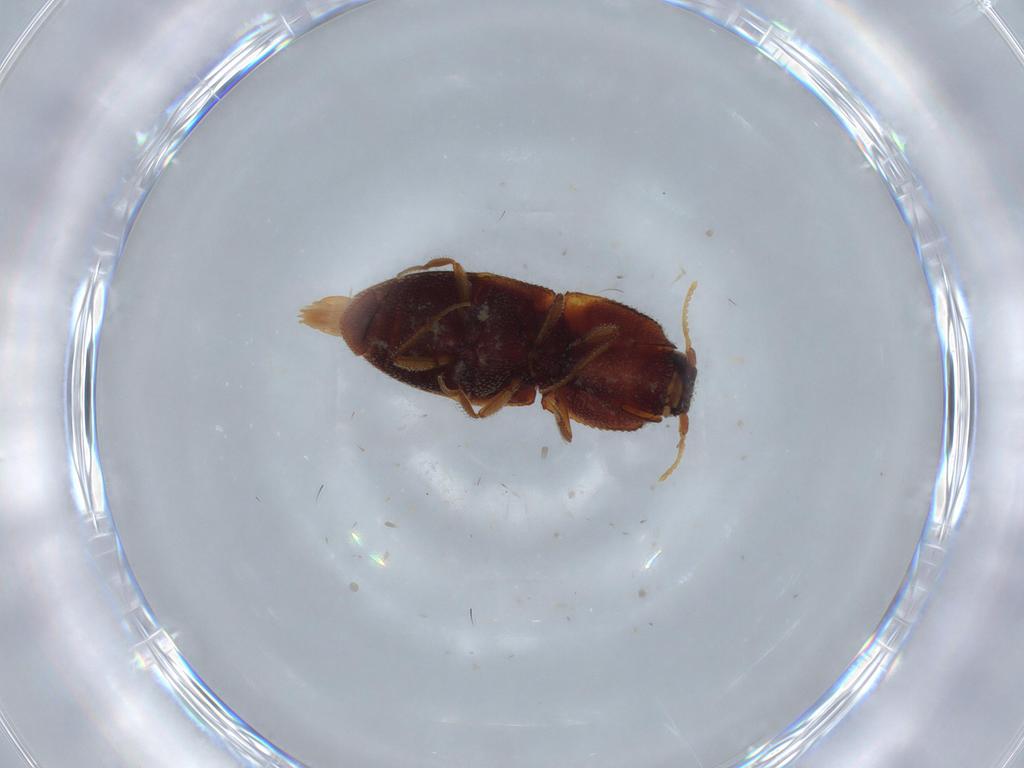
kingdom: Animalia
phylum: Arthropoda
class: Insecta
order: Coleoptera
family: Elateridae
